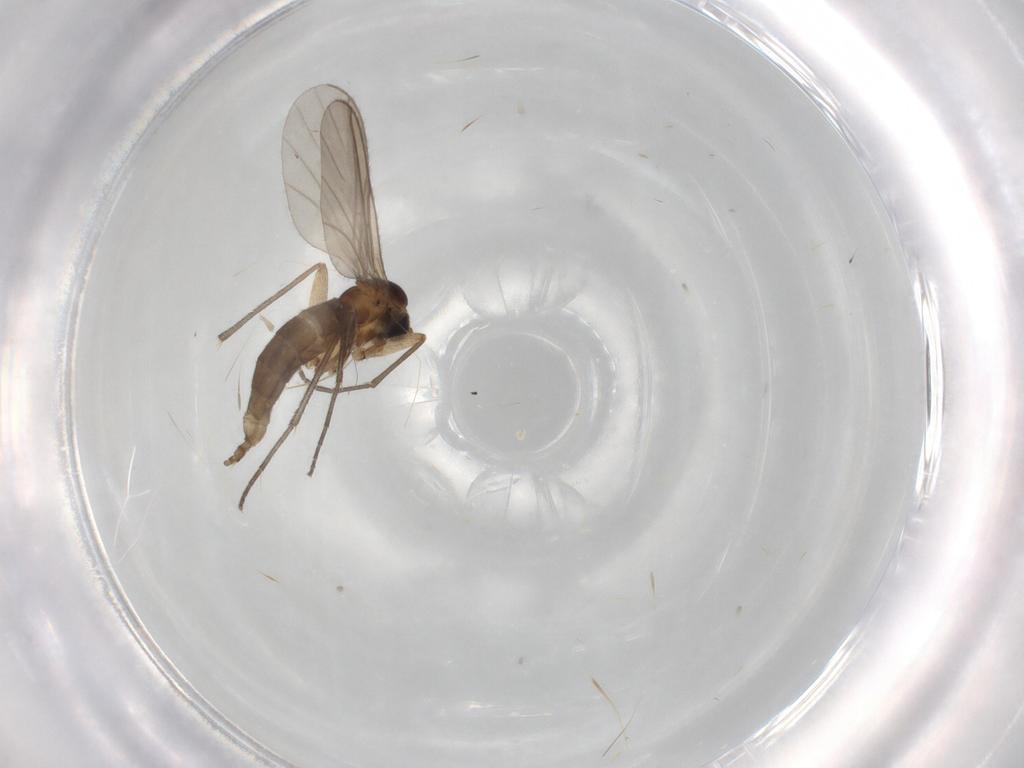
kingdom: Animalia
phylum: Arthropoda
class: Insecta
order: Diptera
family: Sciaridae
